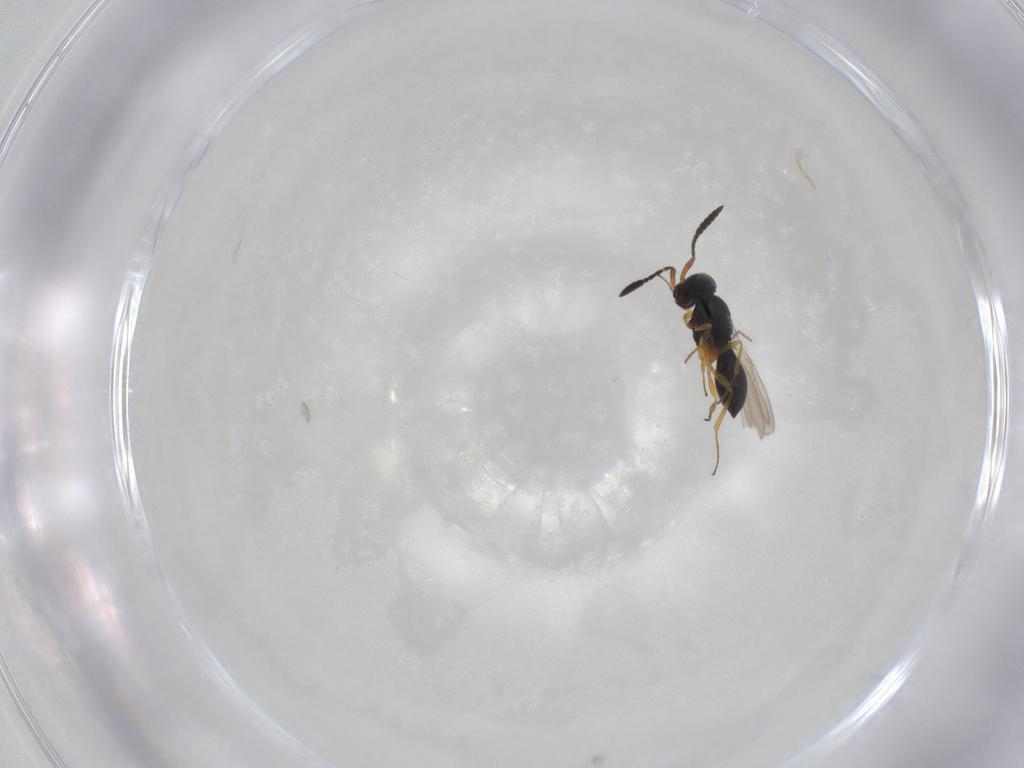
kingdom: Animalia
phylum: Arthropoda
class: Insecta
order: Hymenoptera
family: Scelionidae
